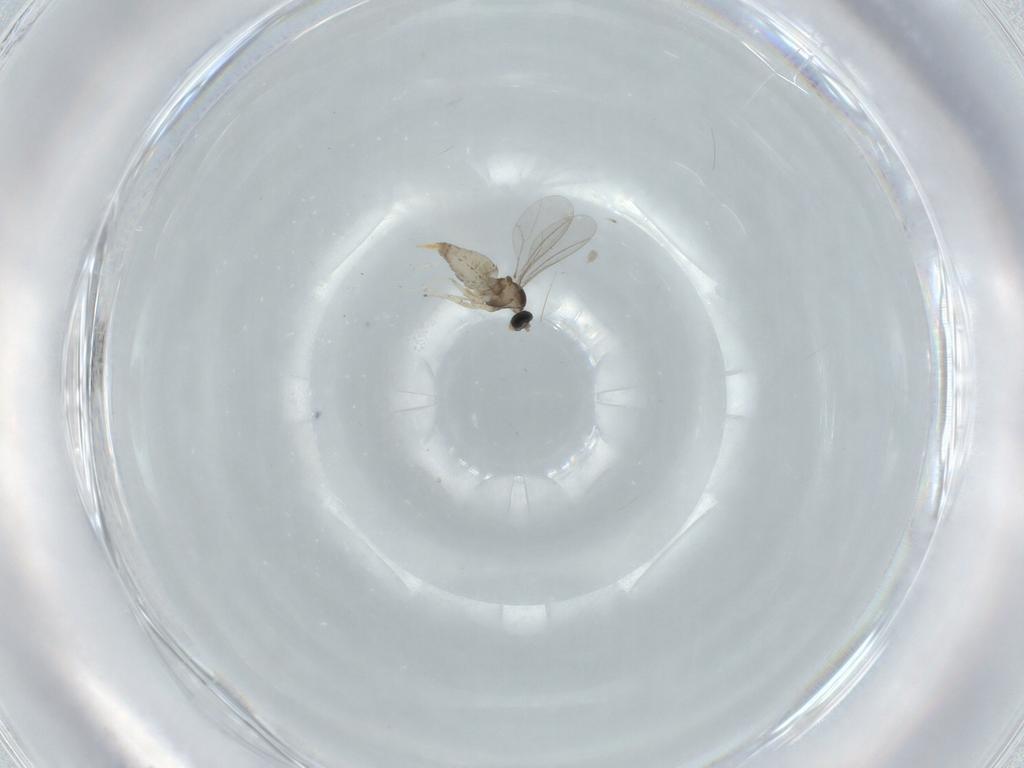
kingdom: Animalia
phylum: Arthropoda
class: Insecta
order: Diptera
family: Cecidomyiidae
